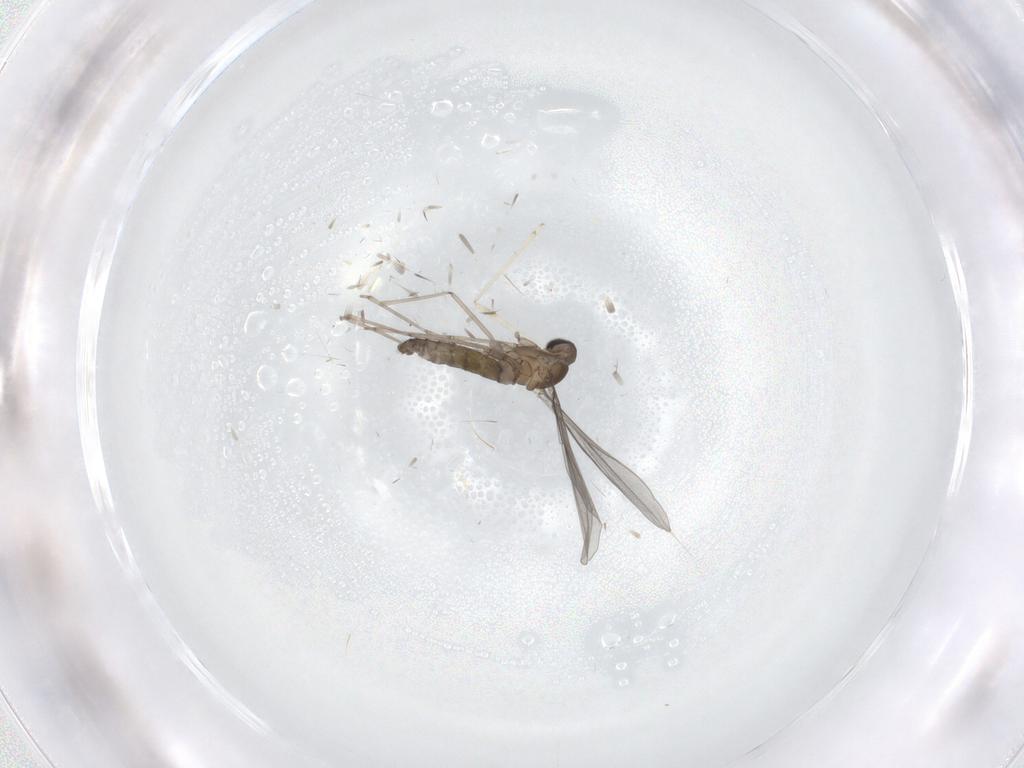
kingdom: Animalia
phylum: Arthropoda
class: Insecta
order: Diptera
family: Cecidomyiidae
